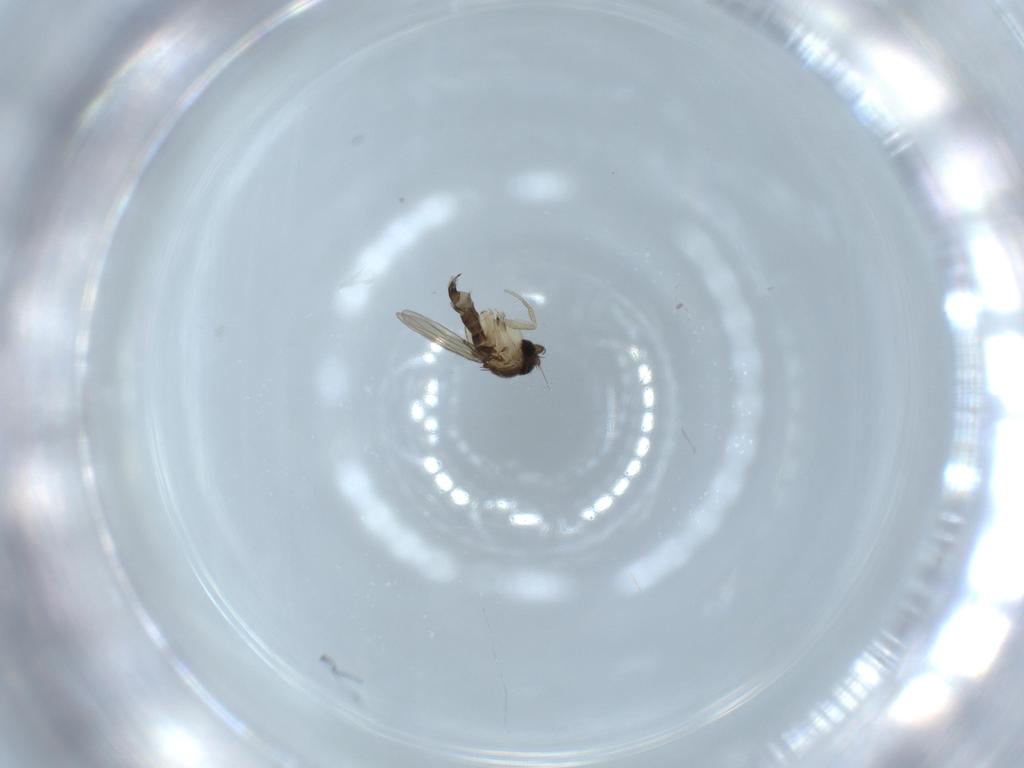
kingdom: Animalia
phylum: Arthropoda
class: Insecta
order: Diptera
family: Phoridae
